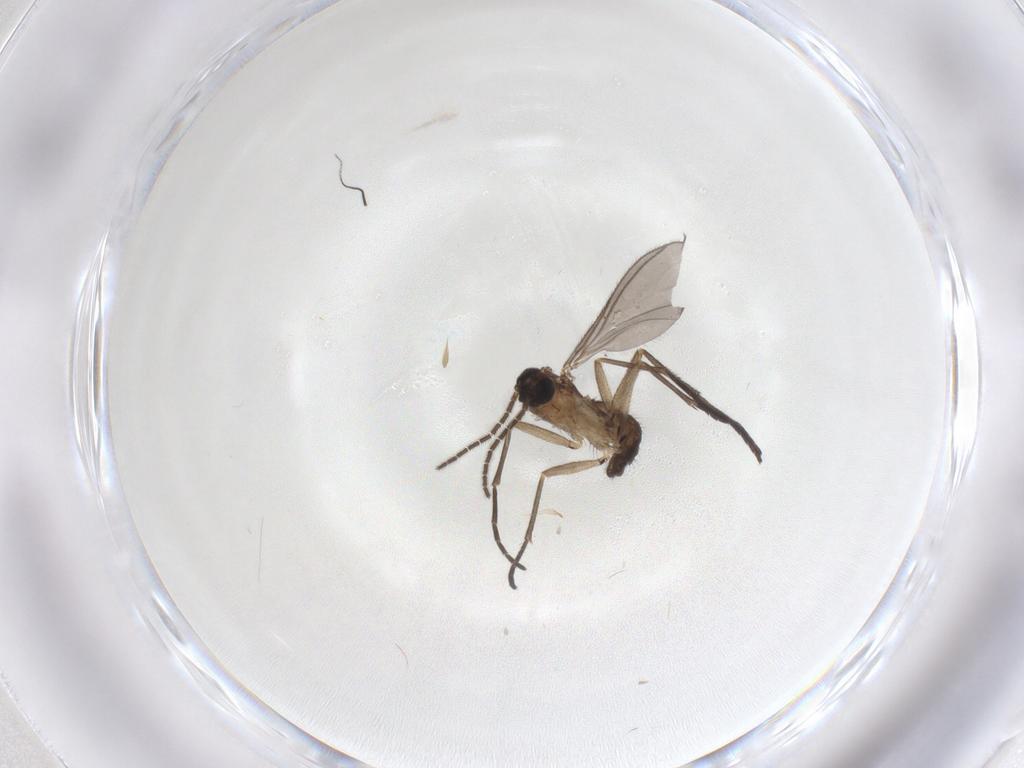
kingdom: Animalia
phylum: Arthropoda
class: Insecta
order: Diptera
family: Sciaridae
